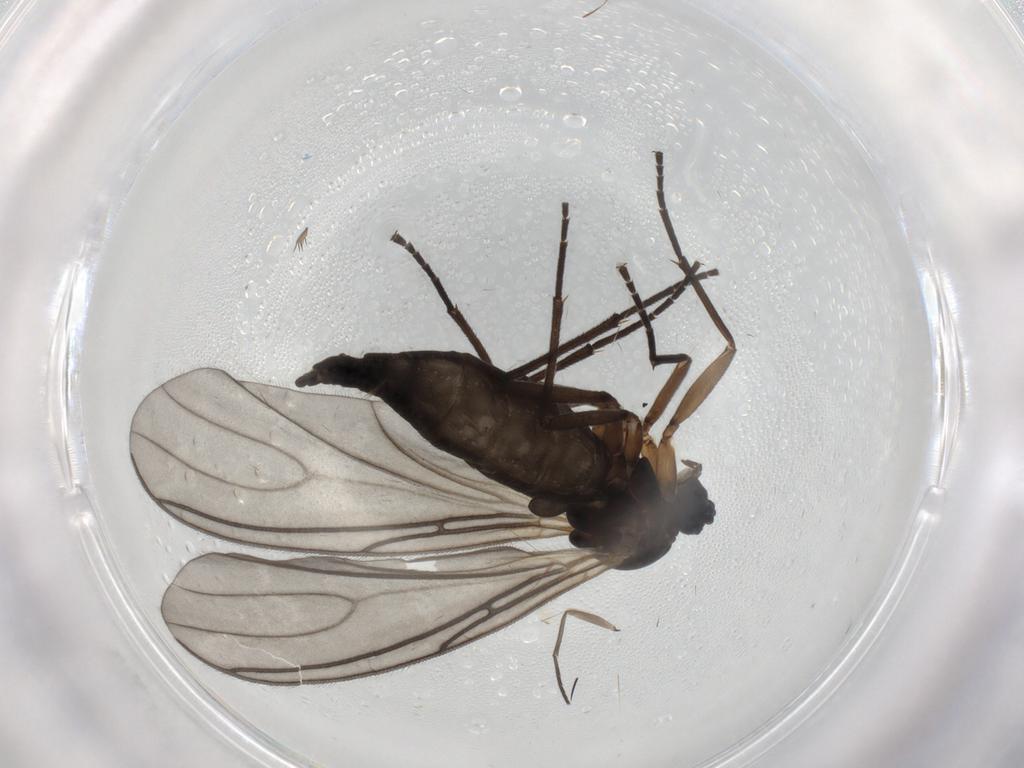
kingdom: Animalia
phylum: Arthropoda
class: Insecta
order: Diptera
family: Sciaridae
